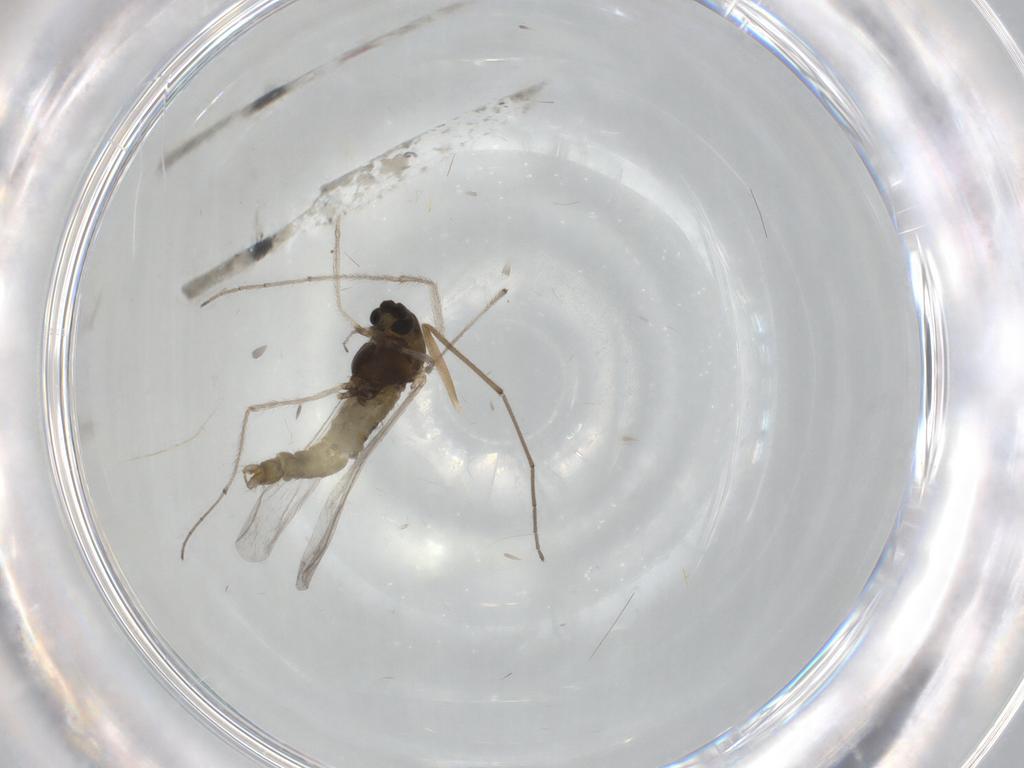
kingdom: Animalia
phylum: Arthropoda
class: Insecta
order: Diptera
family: Chironomidae
